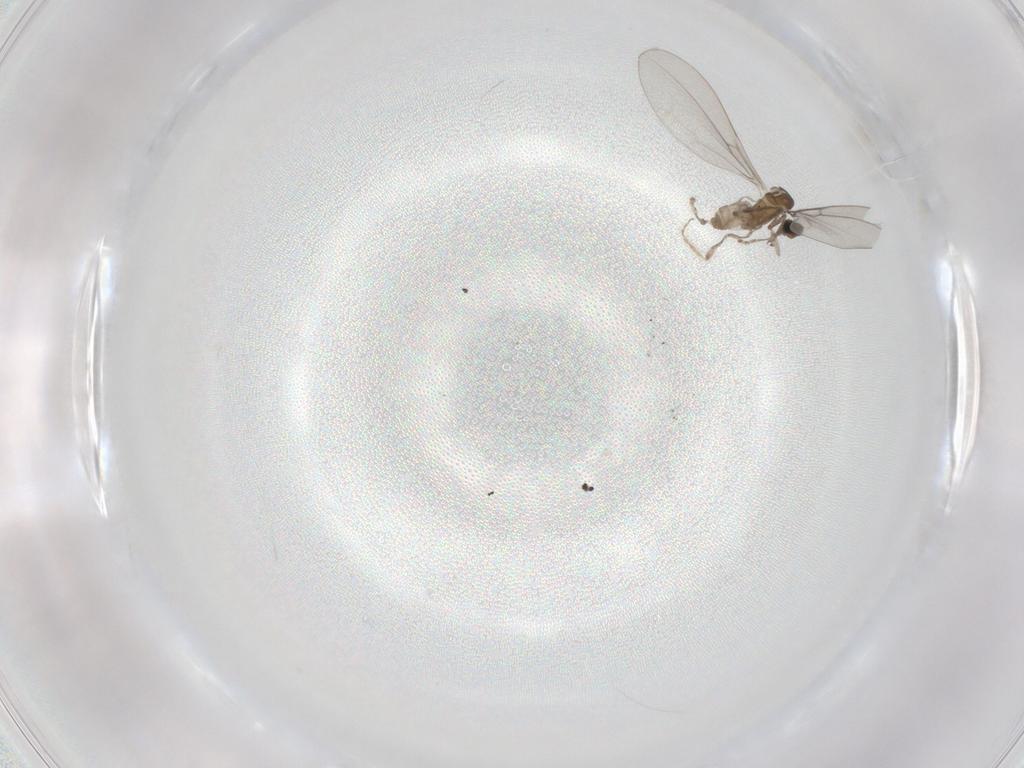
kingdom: Animalia
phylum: Arthropoda
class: Insecta
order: Diptera
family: Cecidomyiidae
